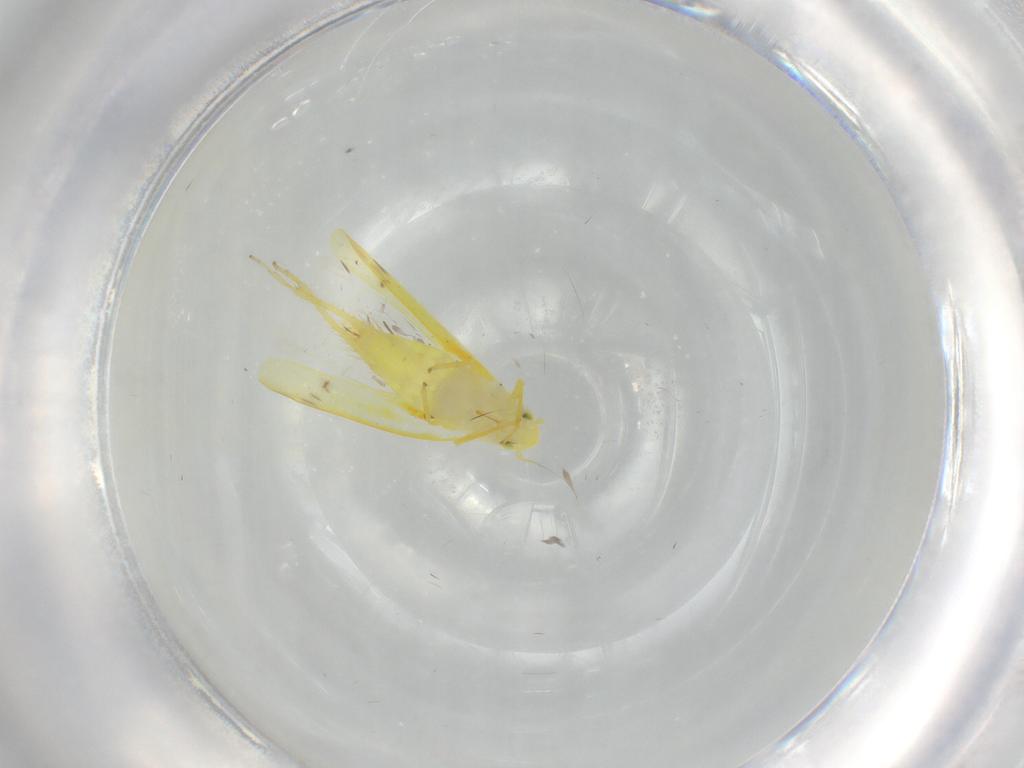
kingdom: Animalia
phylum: Arthropoda
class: Insecta
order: Hemiptera
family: Cicadellidae
